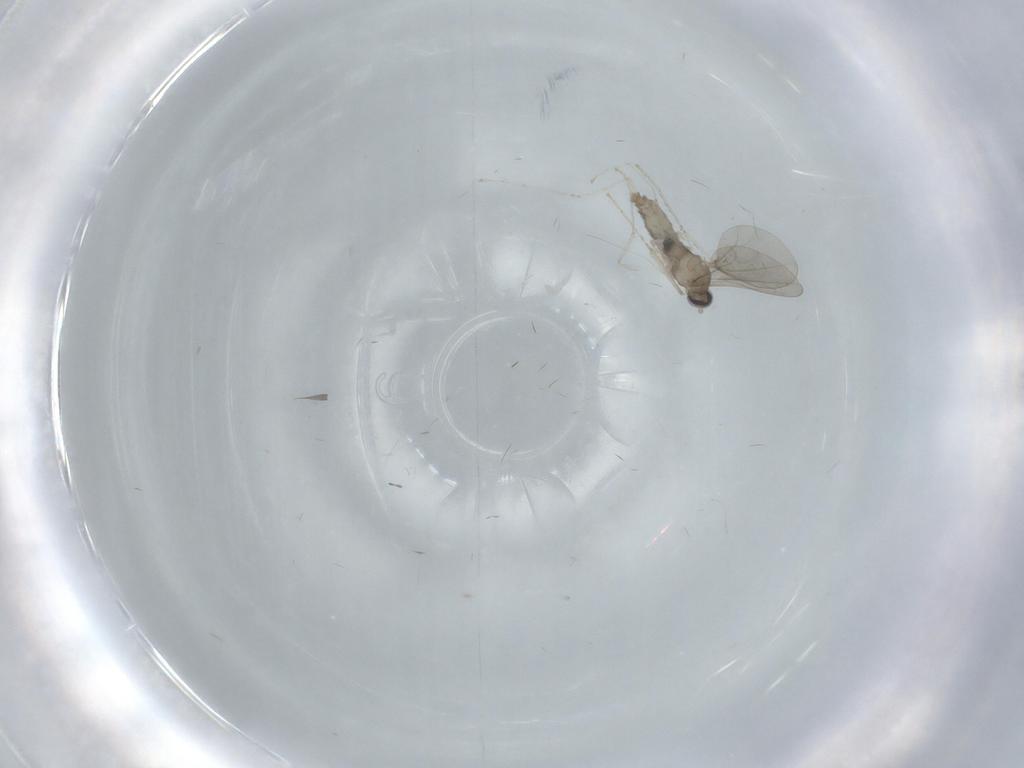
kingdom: Animalia
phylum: Arthropoda
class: Insecta
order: Diptera
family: Cecidomyiidae
